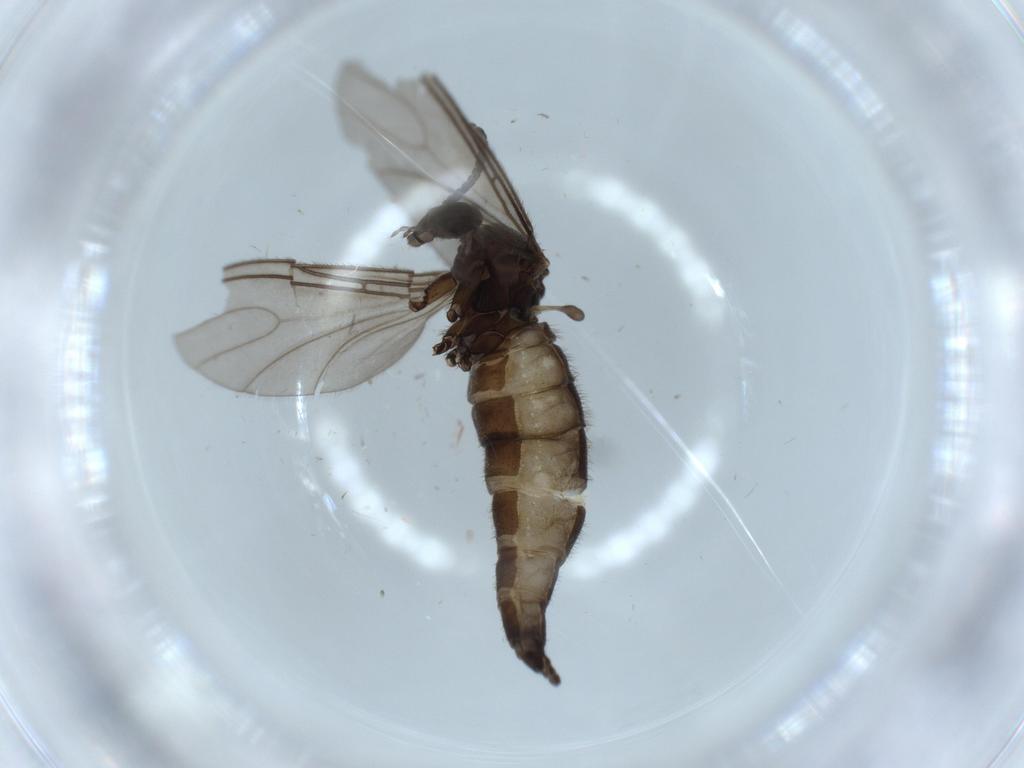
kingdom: Animalia
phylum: Arthropoda
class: Insecta
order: Diptera
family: Sciaridae
